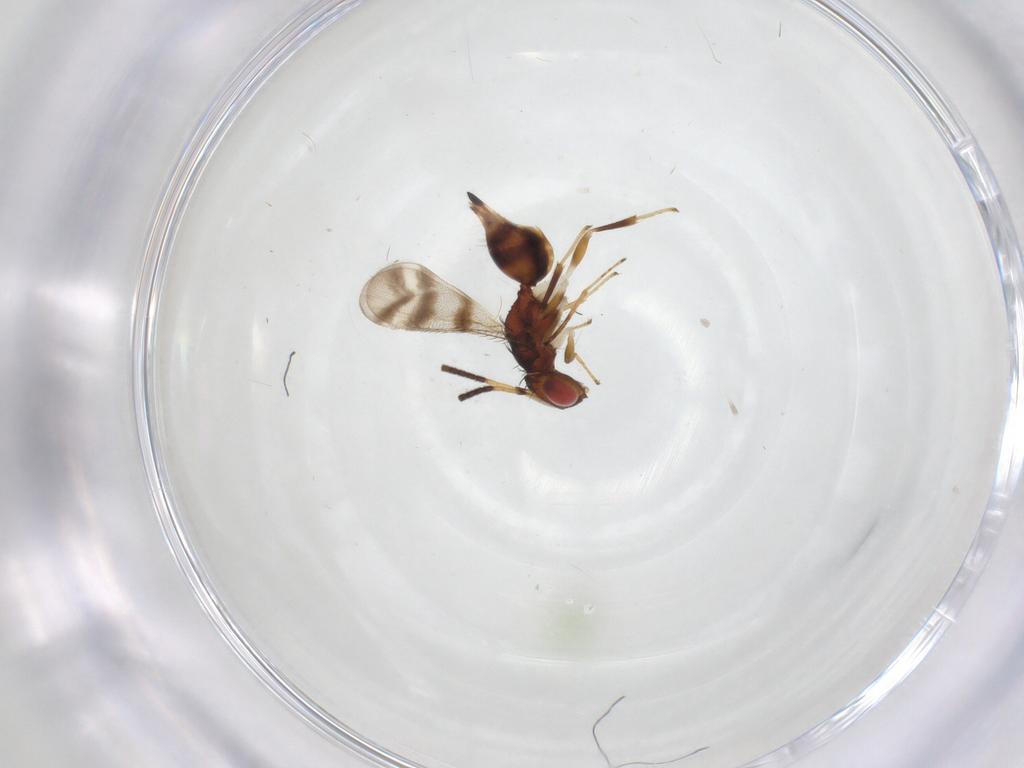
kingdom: Animalia
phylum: Arthropoda
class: Insecta
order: Hymenoptera
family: Diparidae
